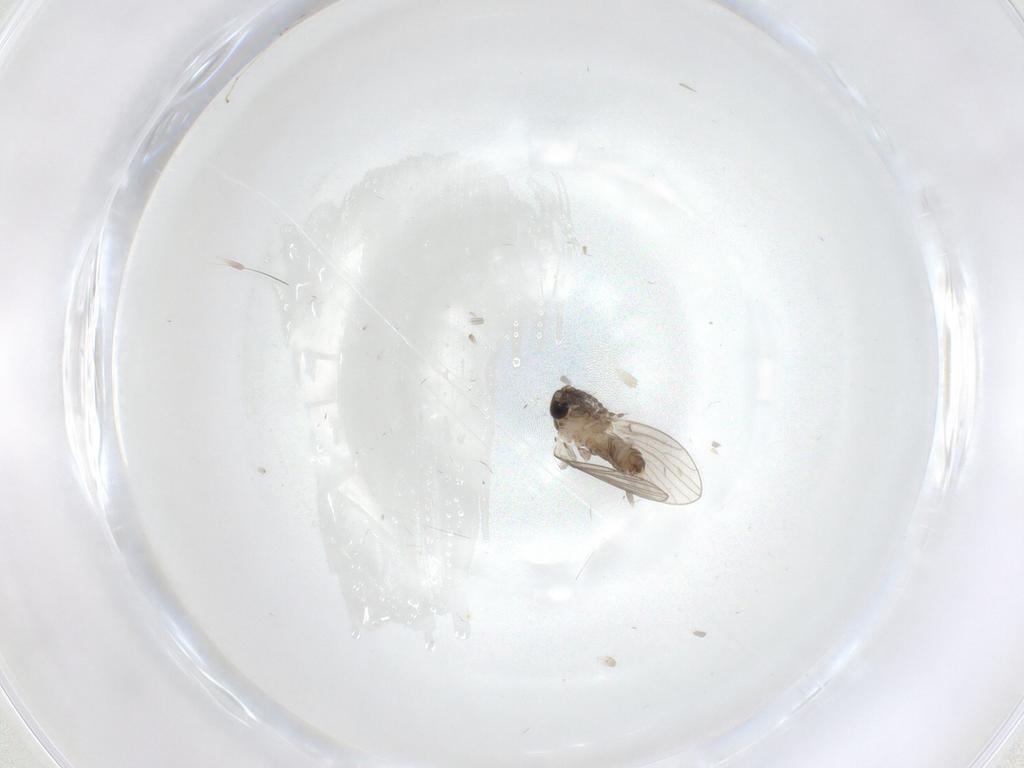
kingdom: Animalia
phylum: Arthropoda
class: Insecta
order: Diptera
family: Chironomidae
